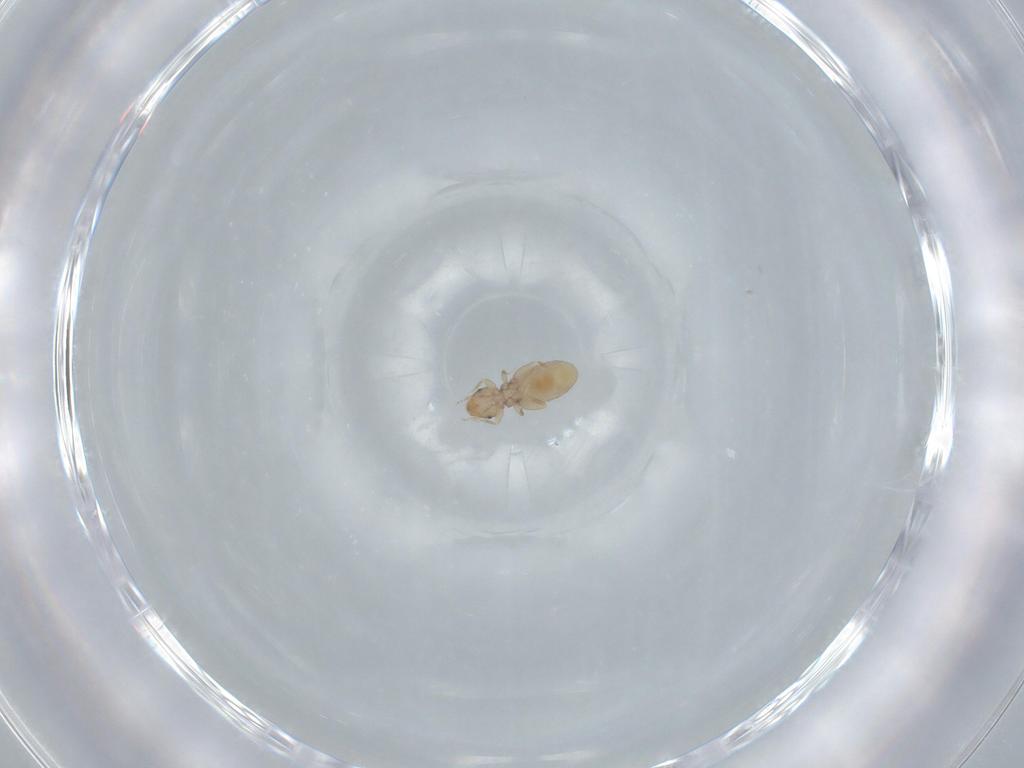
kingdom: Animalia
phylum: Arthropoda
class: Insecta
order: Psocodea
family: Liposcelididae
